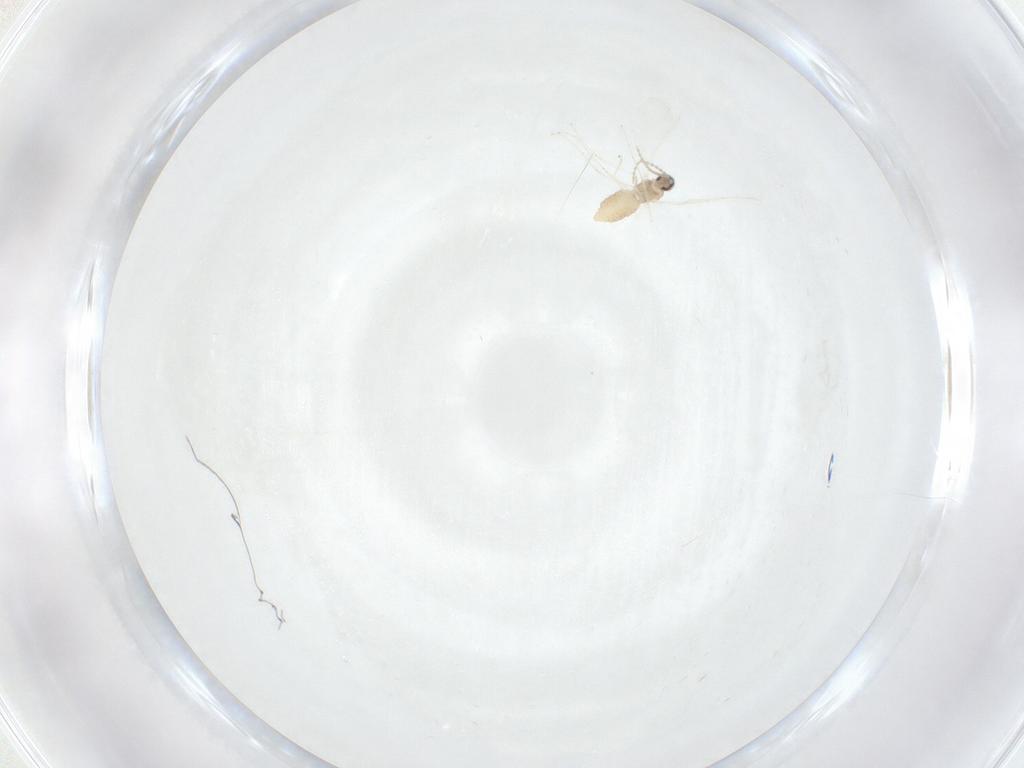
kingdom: Animalia
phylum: Arthropoda
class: Insecta
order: Diptera
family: Cecidomyiidae
